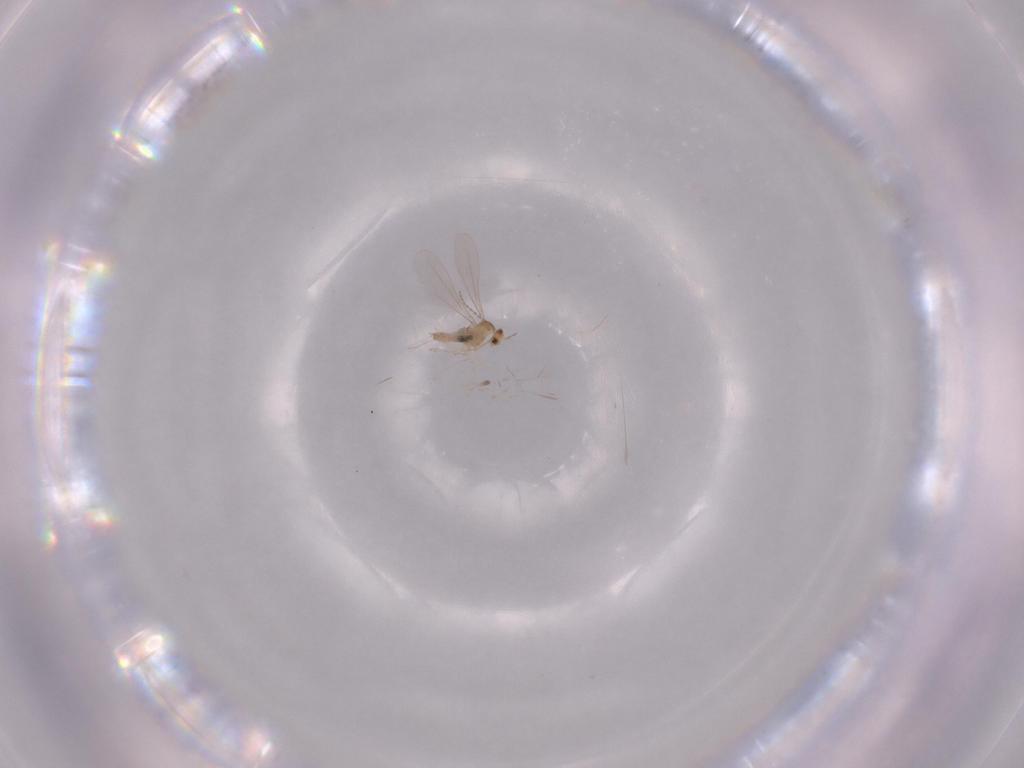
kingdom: Animalia
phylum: Arthropoda
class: Insecta
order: Diptera
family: Cecidomyiidae
